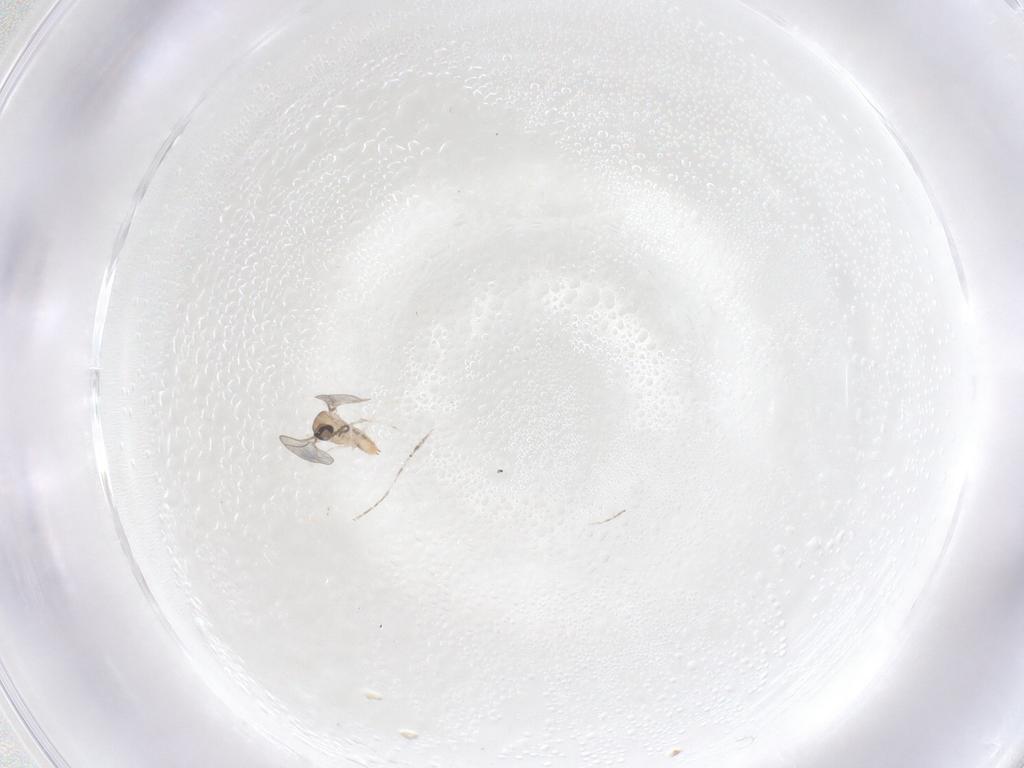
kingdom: Animalia
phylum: Arthropoda
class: Insecta
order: Diptera
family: Cecidomyiidae
